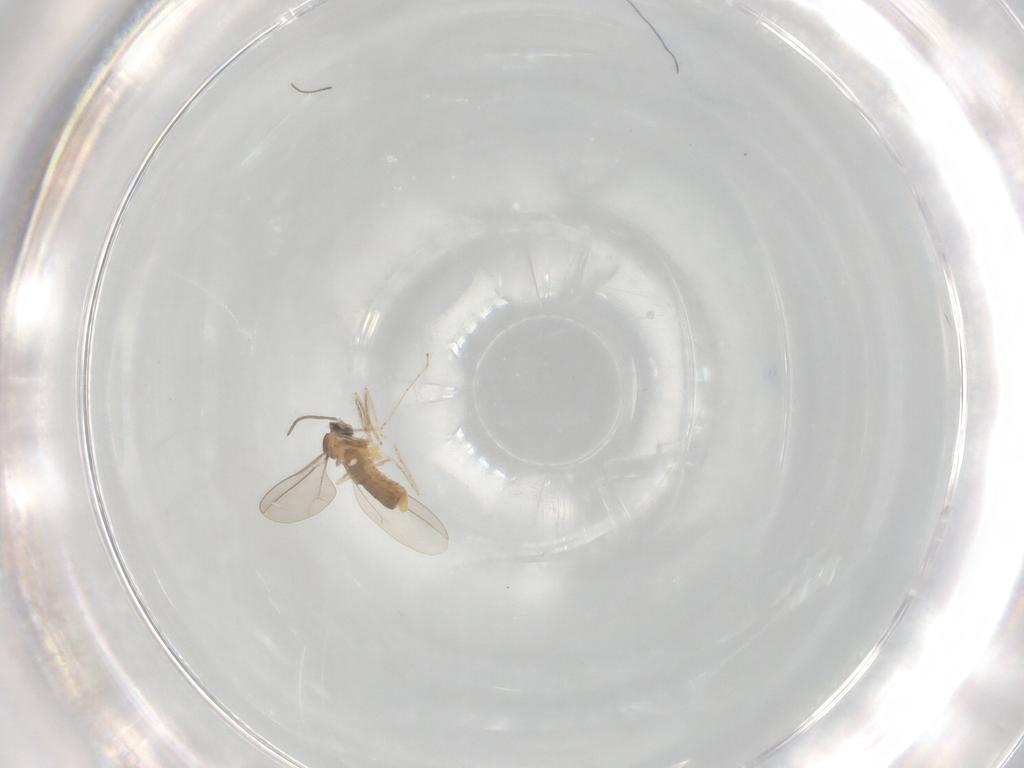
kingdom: Animalia
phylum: Arthropoda
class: Insecta
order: Diptera
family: Cecidomyiidae
